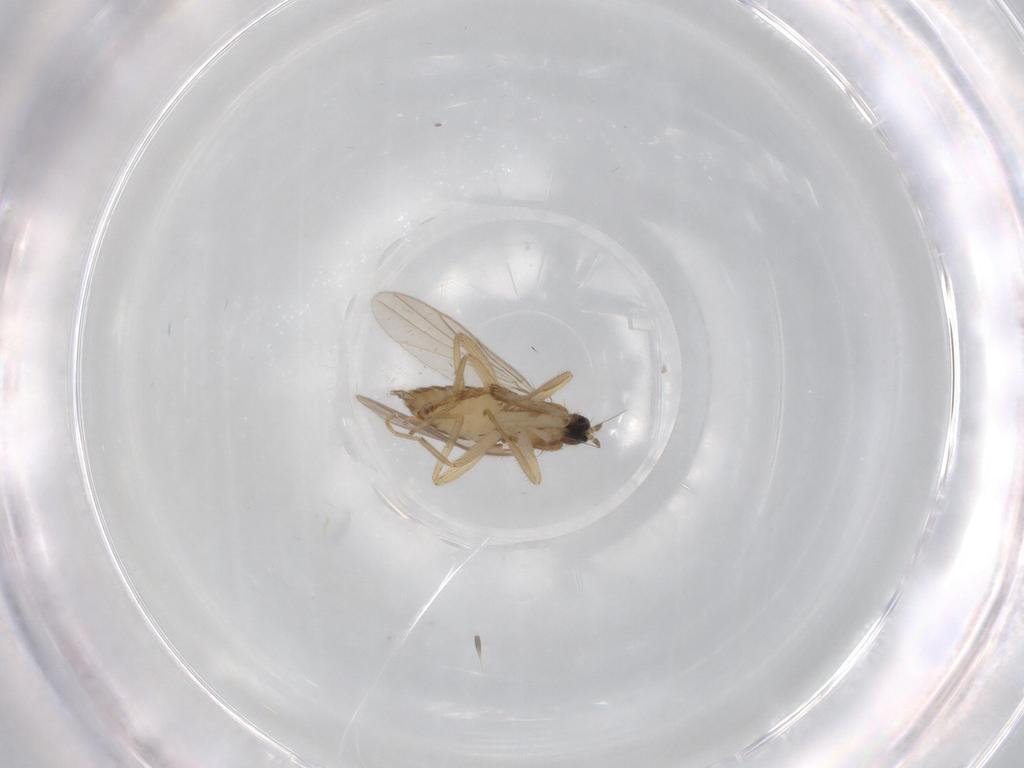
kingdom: Animalia
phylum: Arthropoda
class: Insecta
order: Diptera
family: Psychodidae
